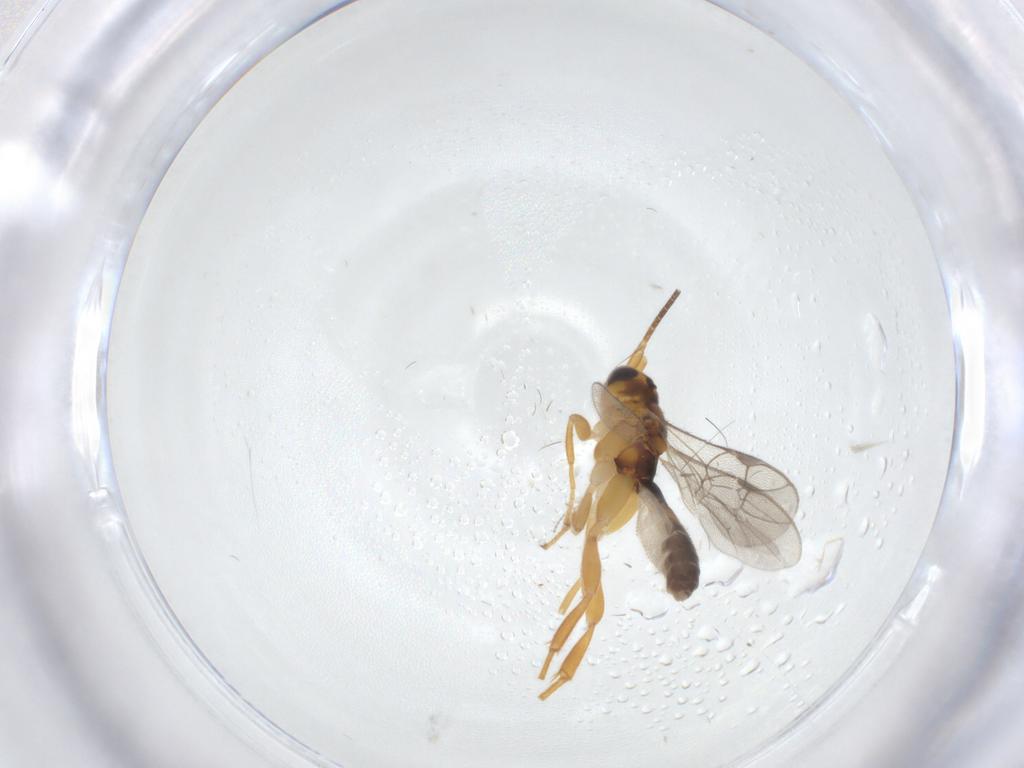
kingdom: Animalia
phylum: Arthropoda
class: Insecta
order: Hymenoptera
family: Ichneumonidae
